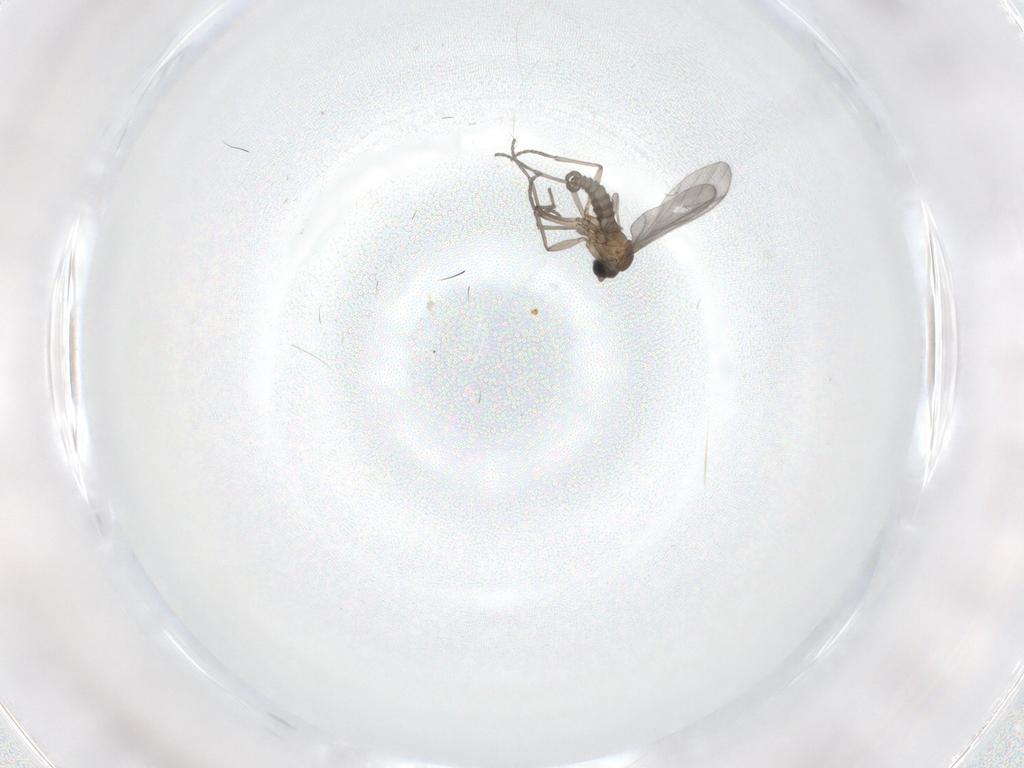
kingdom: Animalia
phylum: Arthropoda
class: Insecta
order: Diptera
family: Sciaridae
